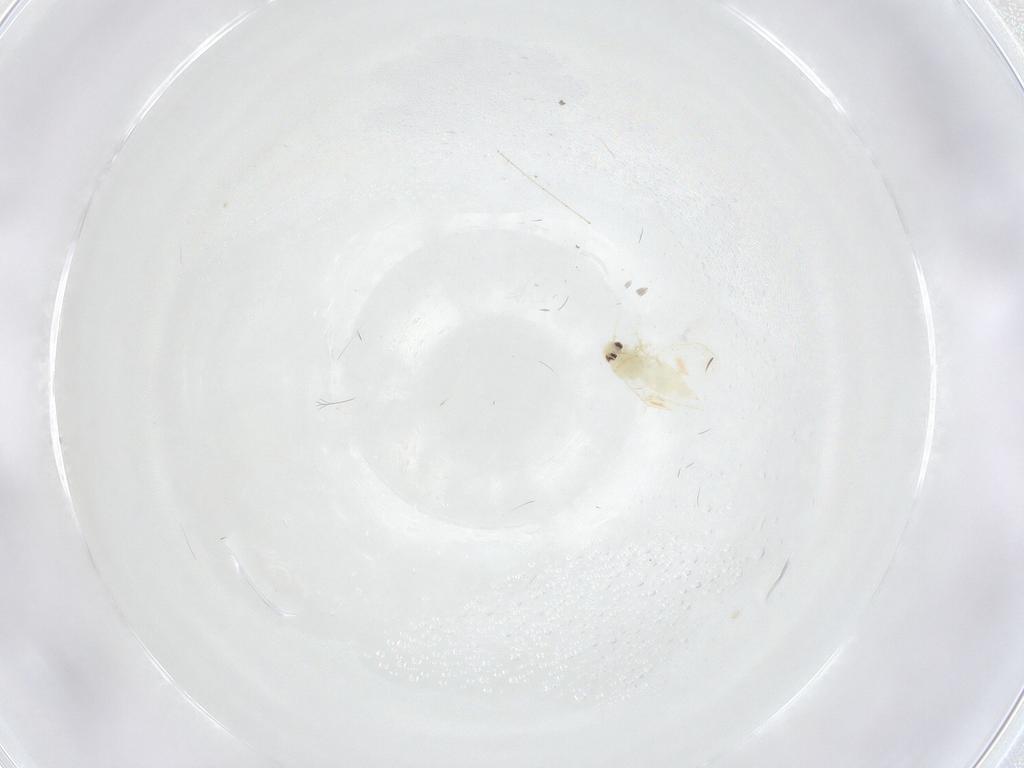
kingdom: Animalia
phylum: Arthropoda
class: Insecta
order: Hemiptera
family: Aleyrodidae
